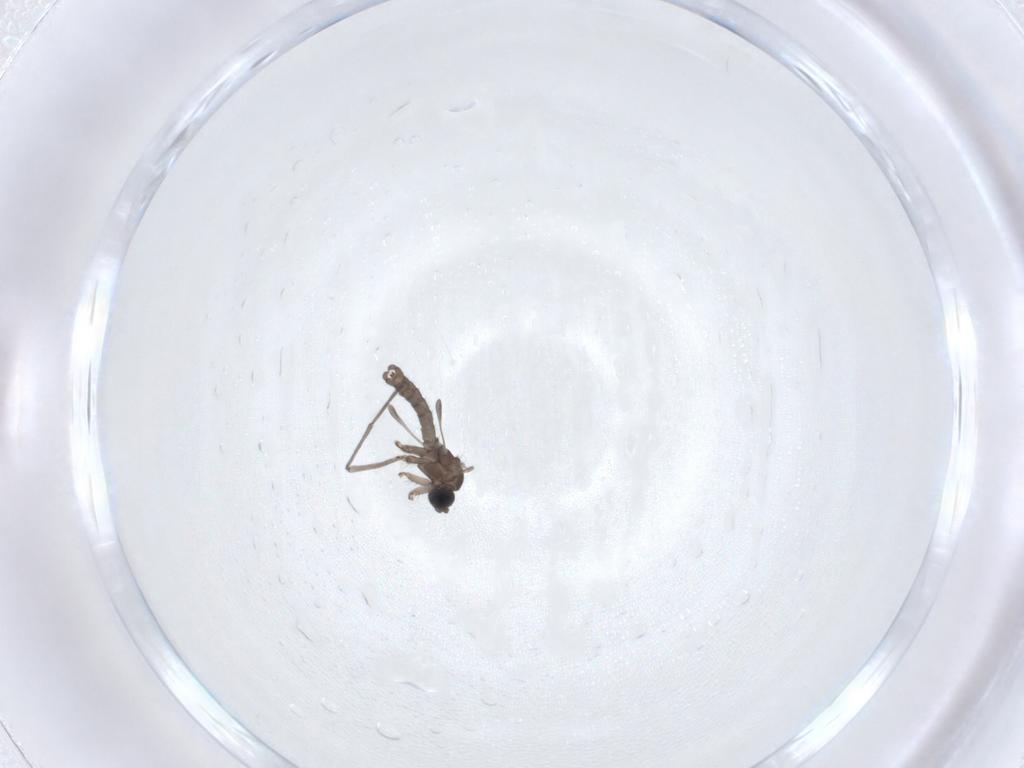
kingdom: Animalia
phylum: Arthropoda
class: Insecta
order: Diptera
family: Sciaridae
